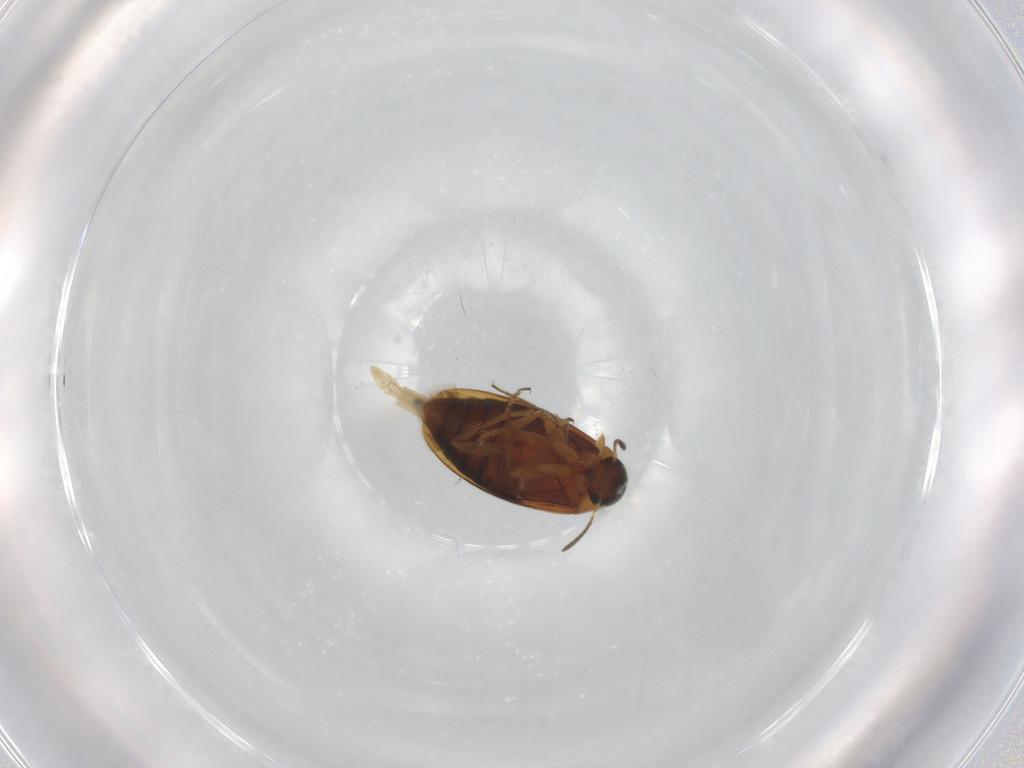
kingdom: Animalia
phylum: Arthropoda
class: Insecta
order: Coleoptera
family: Scraptiidae
